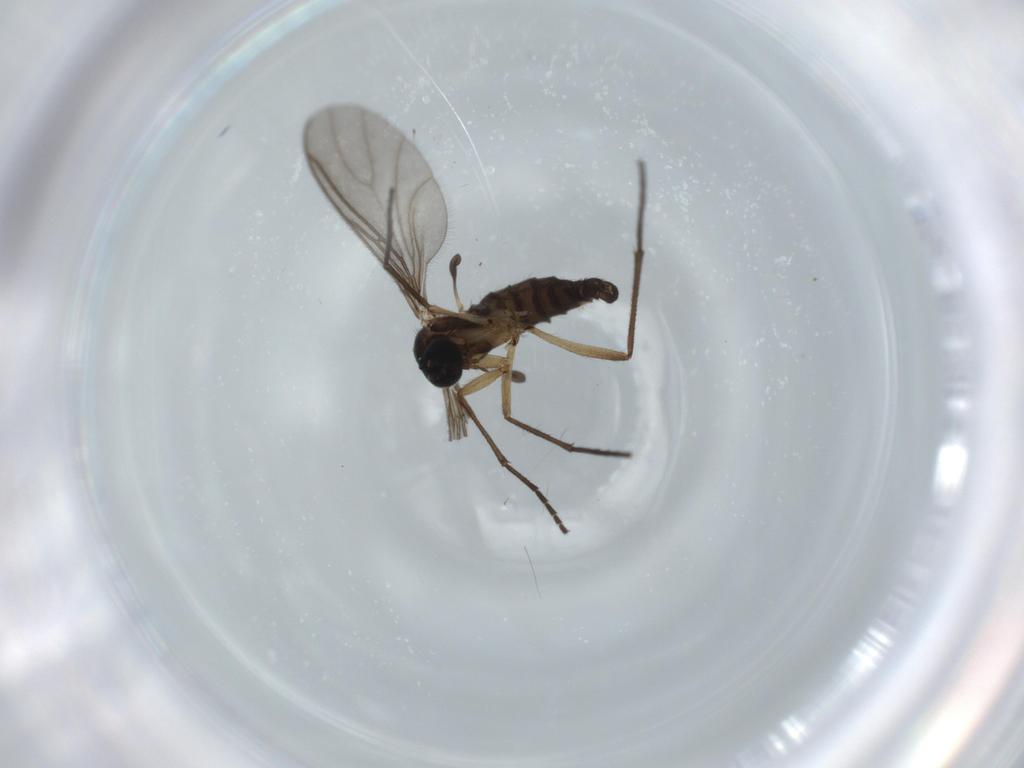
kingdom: Animalia
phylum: Arthropoda
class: Insecta
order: Diptera
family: Sciaridae
